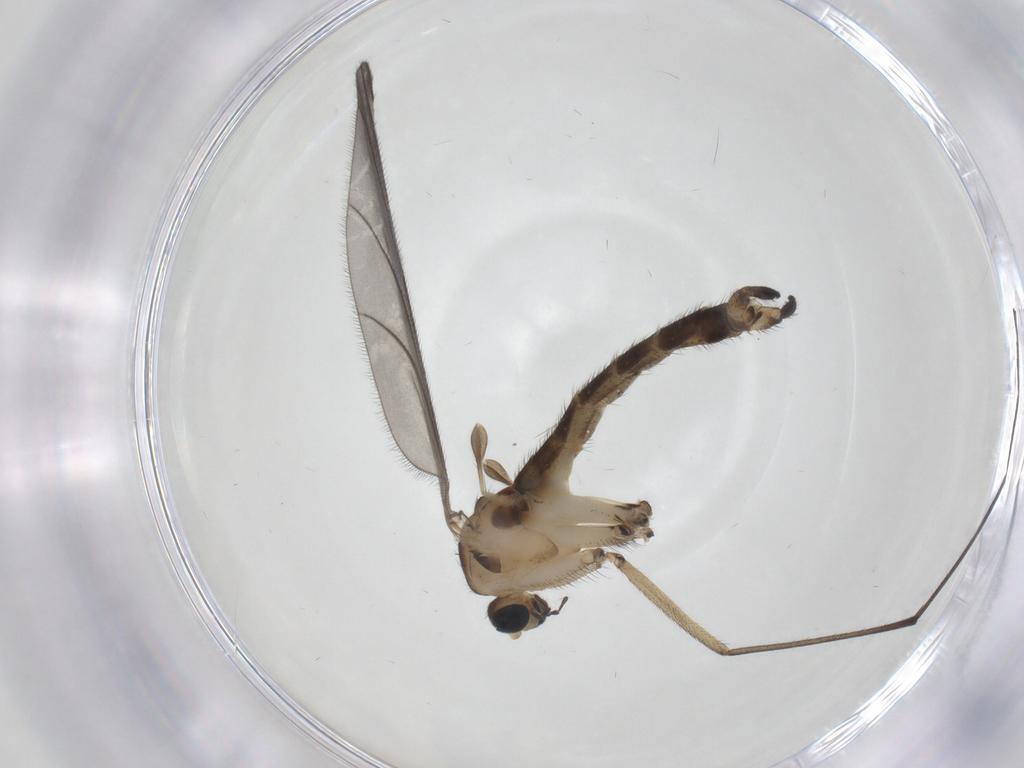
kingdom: Animalia
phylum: Arthropoda
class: Insecta
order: Diptera
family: Sciaridae
